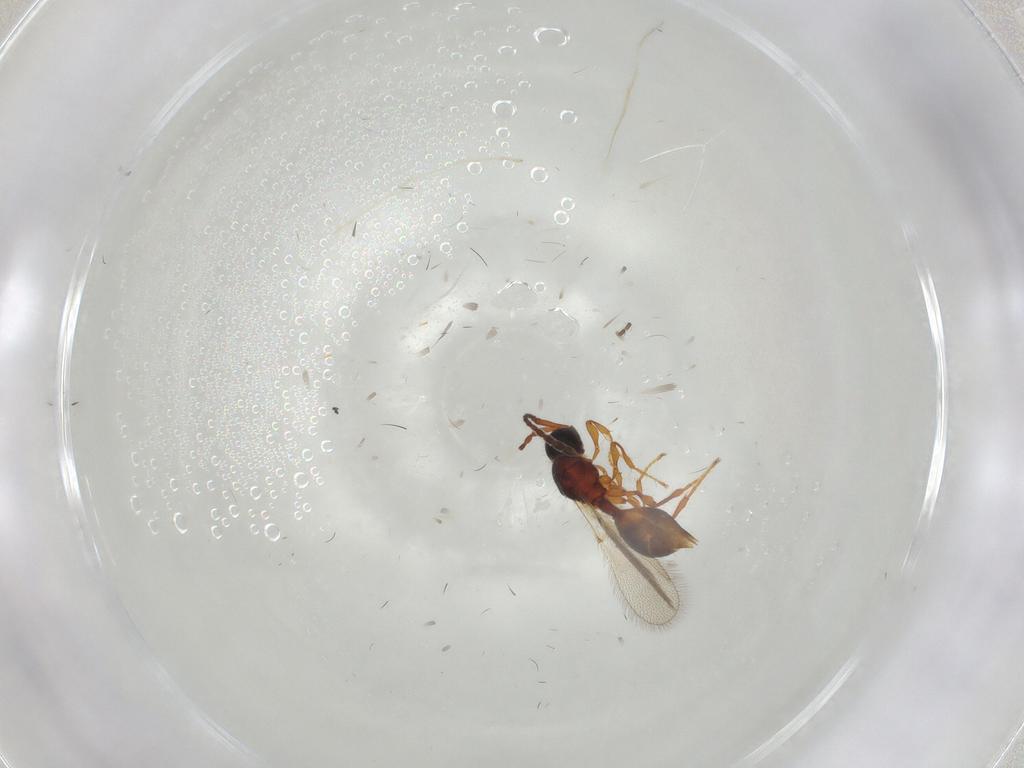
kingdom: Animalia
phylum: Arthropoda
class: Insecta
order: Hymenoptera
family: Diapriidae
